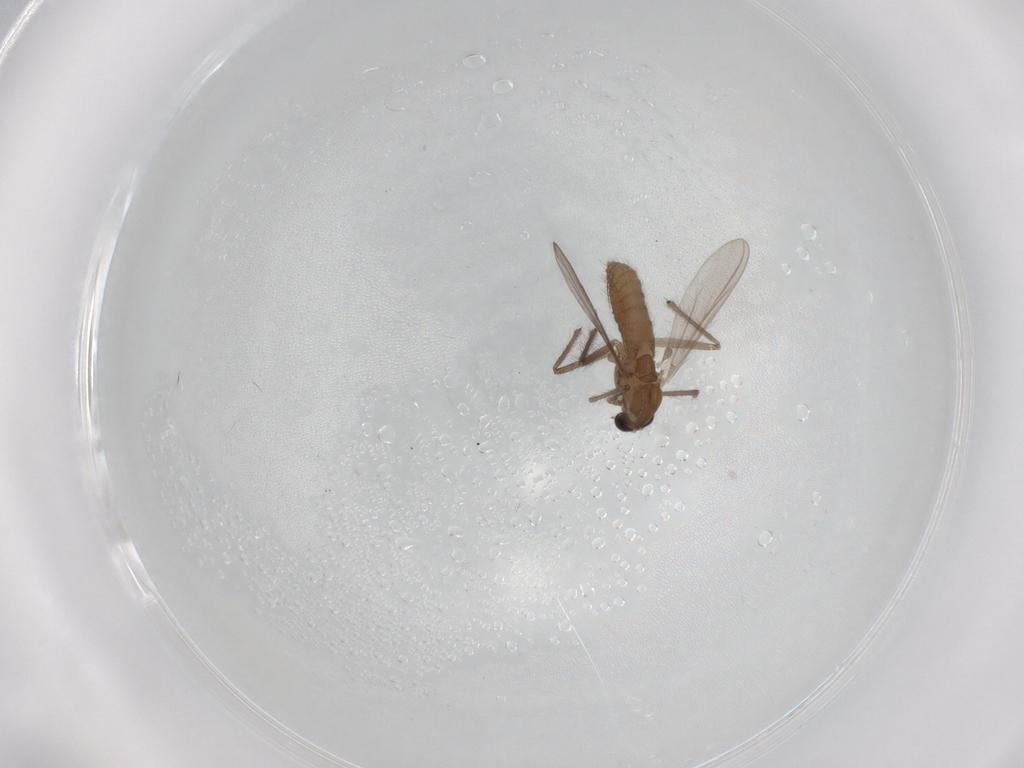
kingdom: Animalia
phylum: Arthropoda
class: Insecta
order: Diptera
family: Chironomidae
